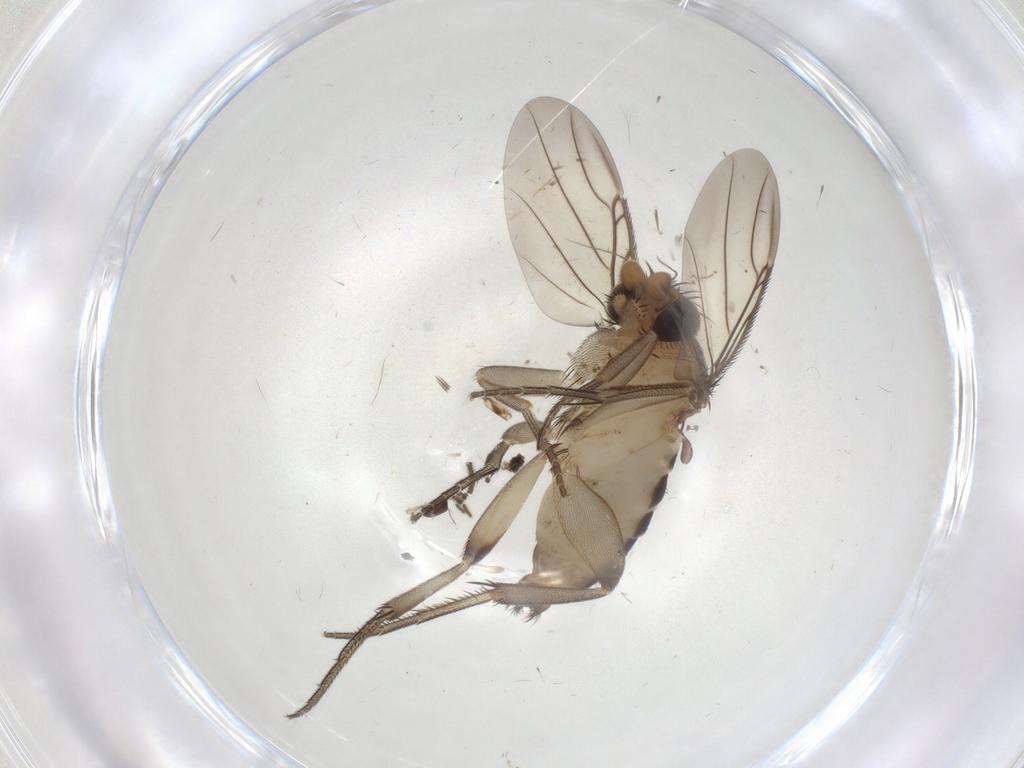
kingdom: Animalia
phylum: Arthropoda
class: Insecta
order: Diptera
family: Phoridae
